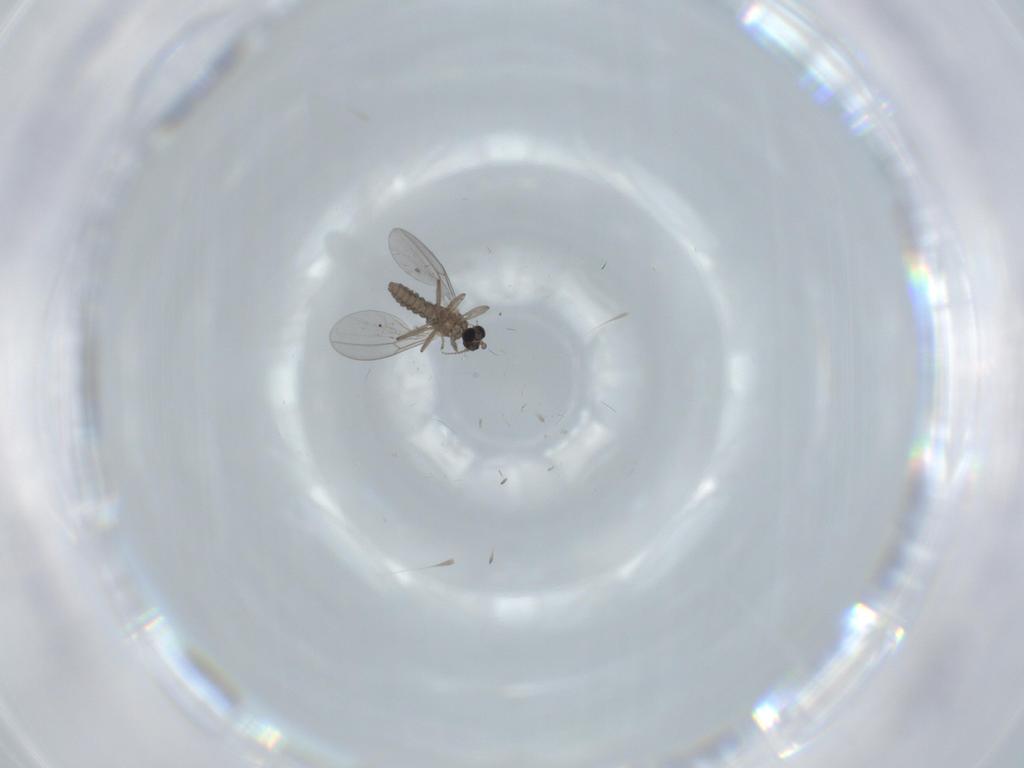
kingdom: Animalia
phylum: Arthropoda
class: Insecta
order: Diptera
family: Cecidomyiidae
